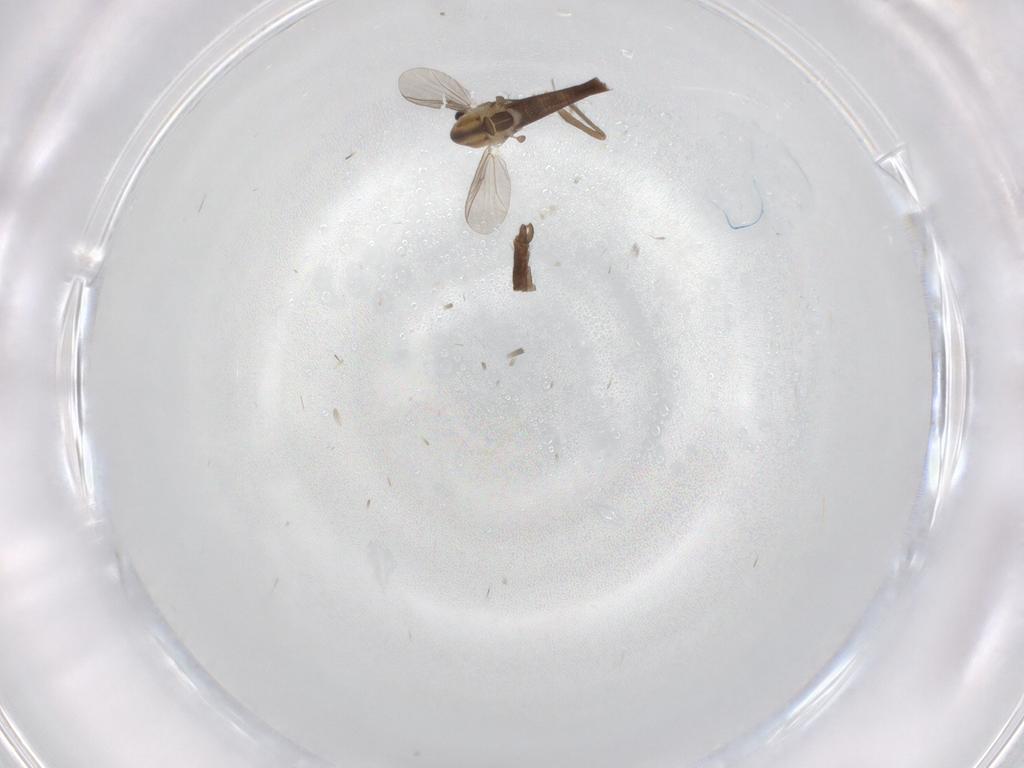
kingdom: Animalia
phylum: Arthropoda
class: Insecta
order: Diptera
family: Chironomidae
